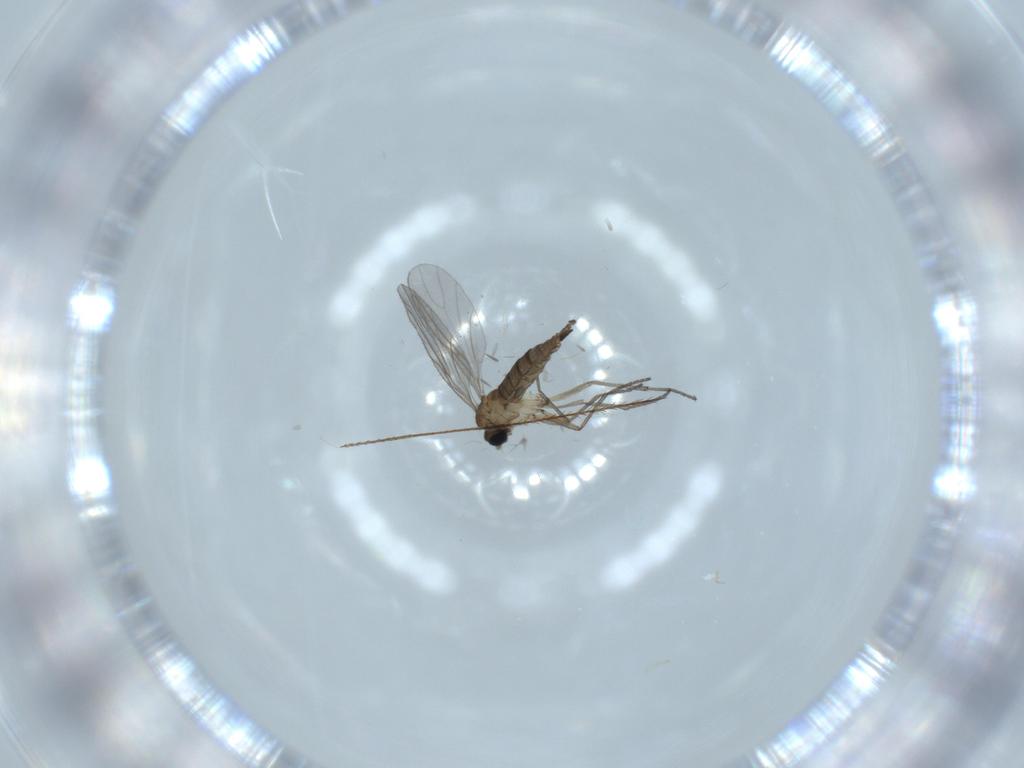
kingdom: Animalia
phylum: Arthropoda
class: Insecta
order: Diptera
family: Sciaridae
